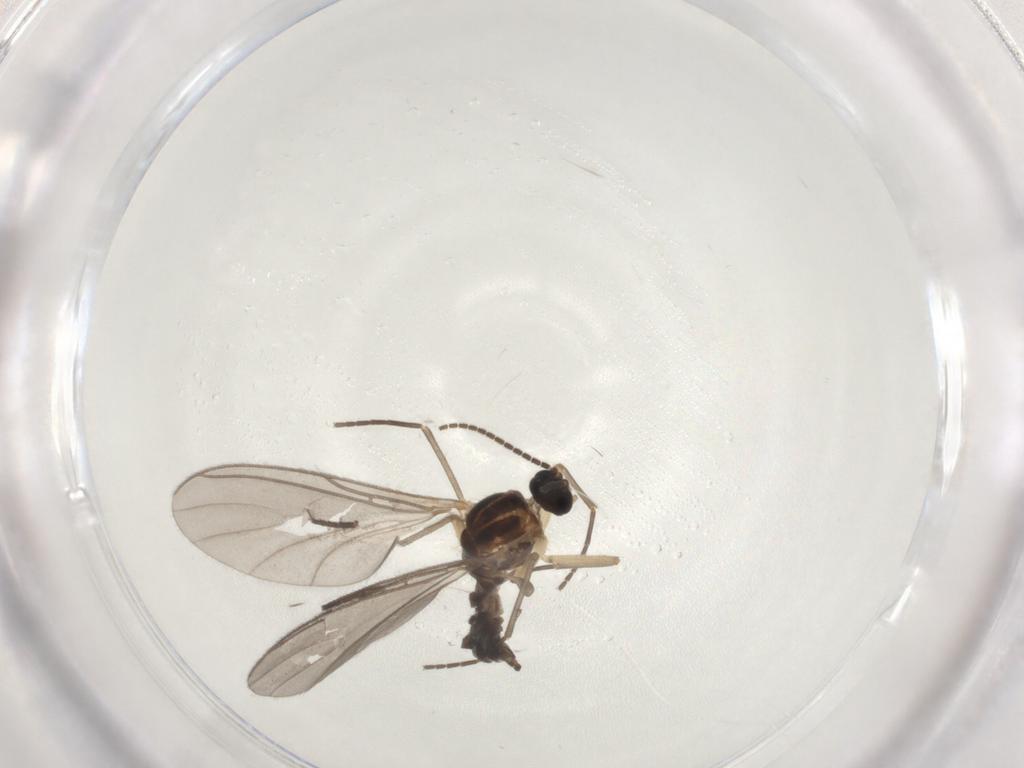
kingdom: Animalia
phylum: Arthropoda
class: Insecta
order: Diptera
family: Sciaridae
